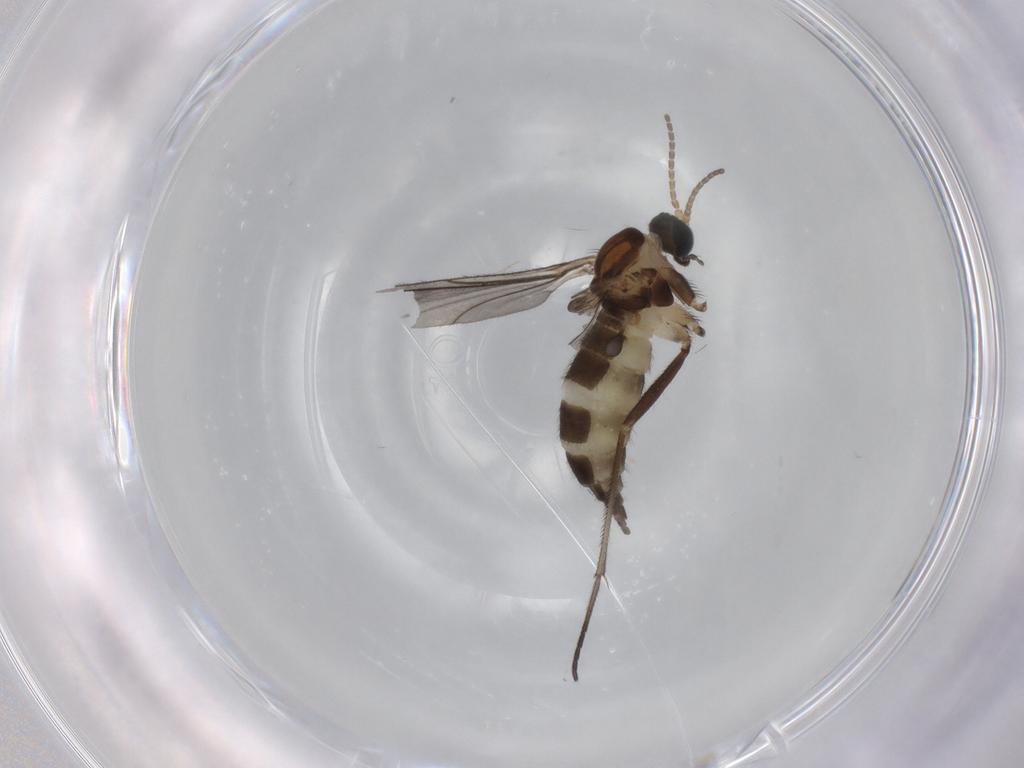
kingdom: Animalia
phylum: Arthropoda
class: Insecta
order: Diptera
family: Sciaridae
